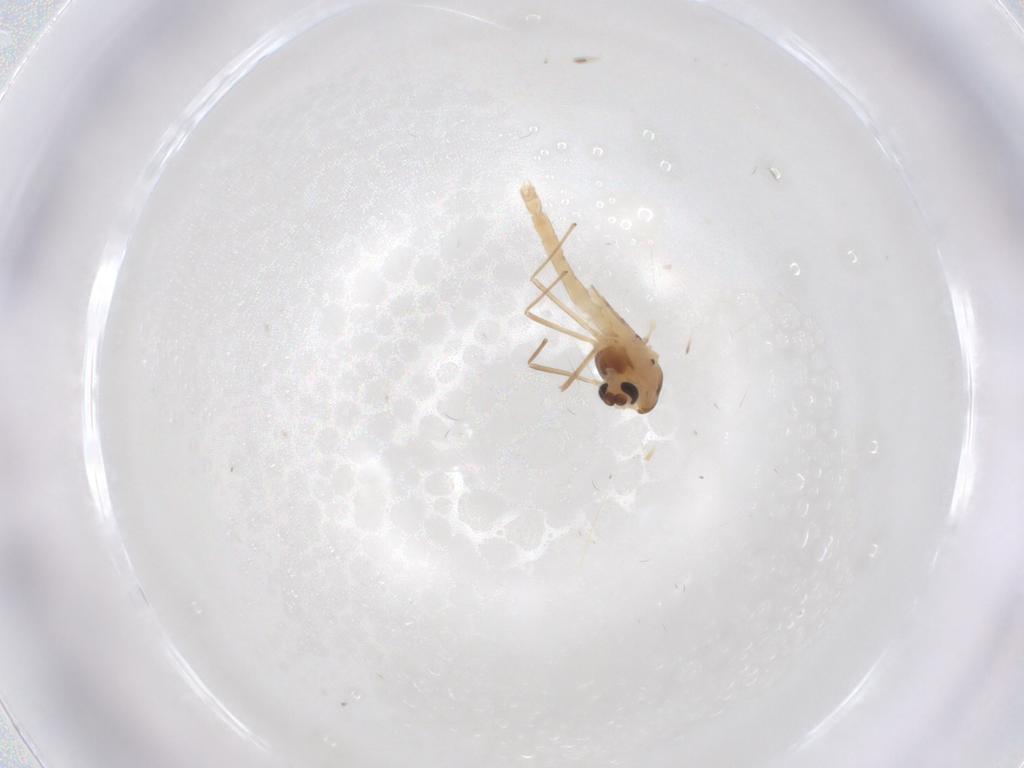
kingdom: Animalia
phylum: Arthropoda
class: Insecta
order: Diptera
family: Chironomidae
